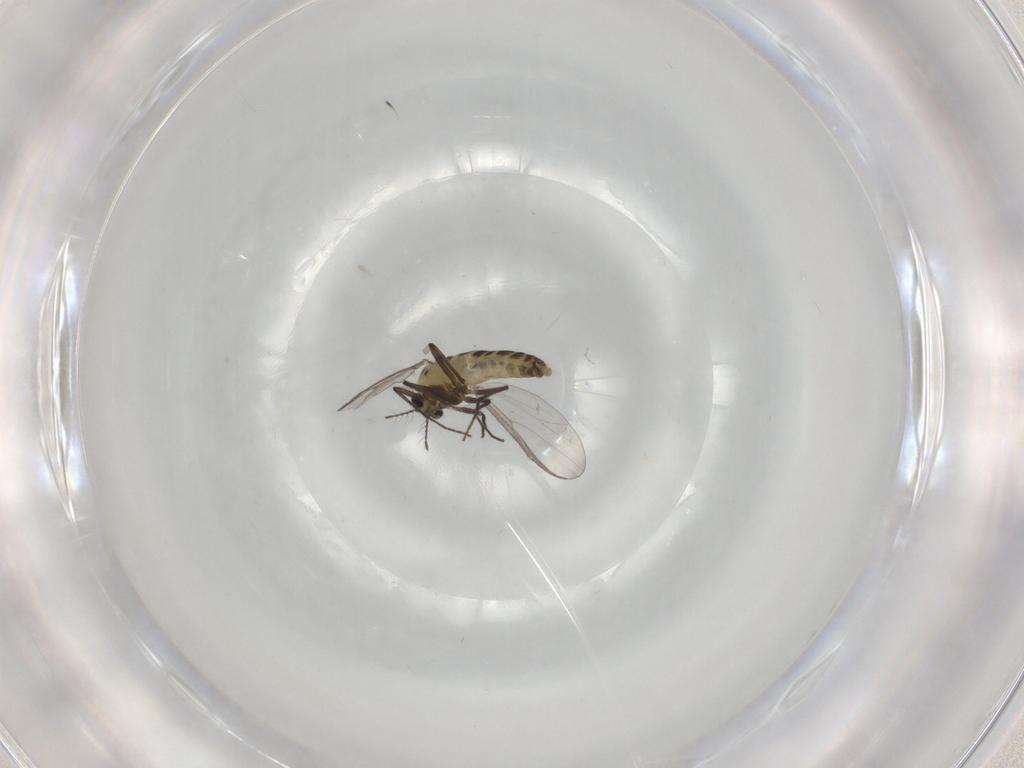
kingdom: Animalia
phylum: Arthropoda
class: Insecta
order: Diptera
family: Chironomidae
